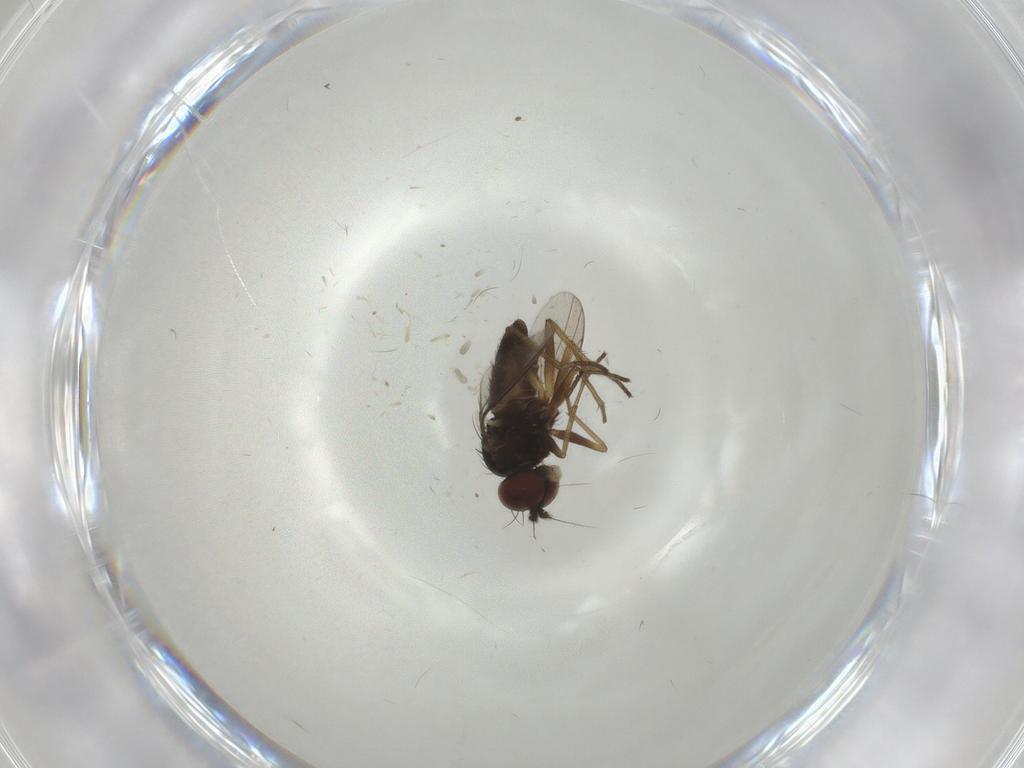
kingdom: Animalia
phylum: Arthropoda
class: Insecta
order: Diptera
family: Dolichopodidae
